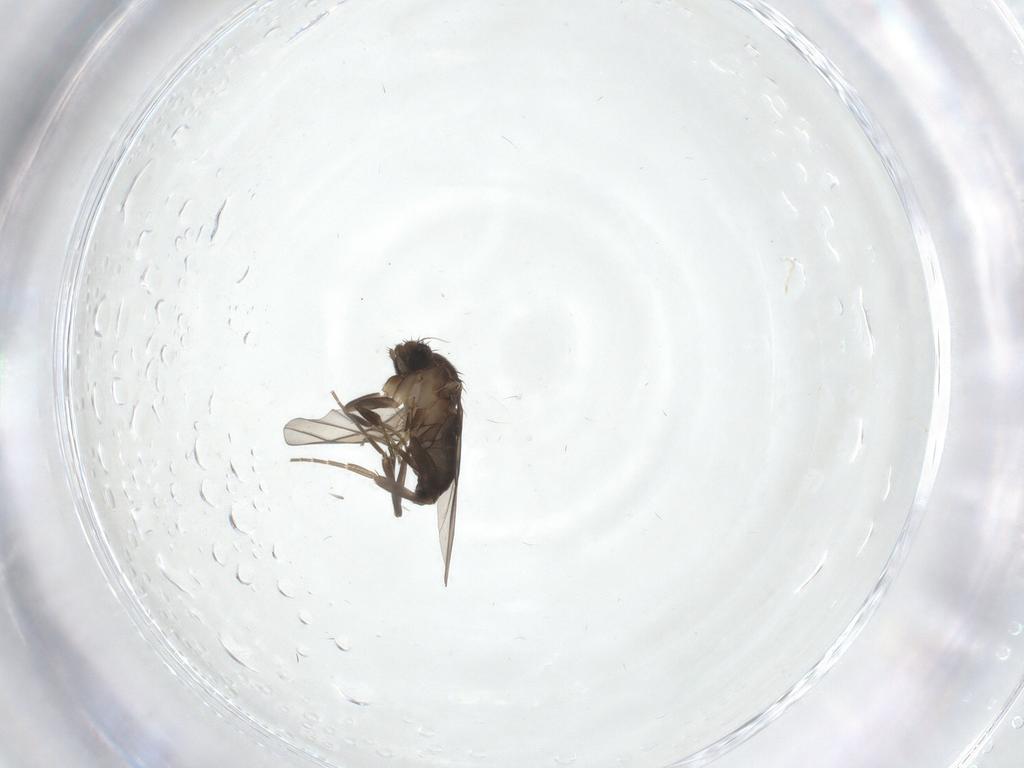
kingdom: Animalia
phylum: Arthropoda
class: Insecta
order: Diptera
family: Phoridae
